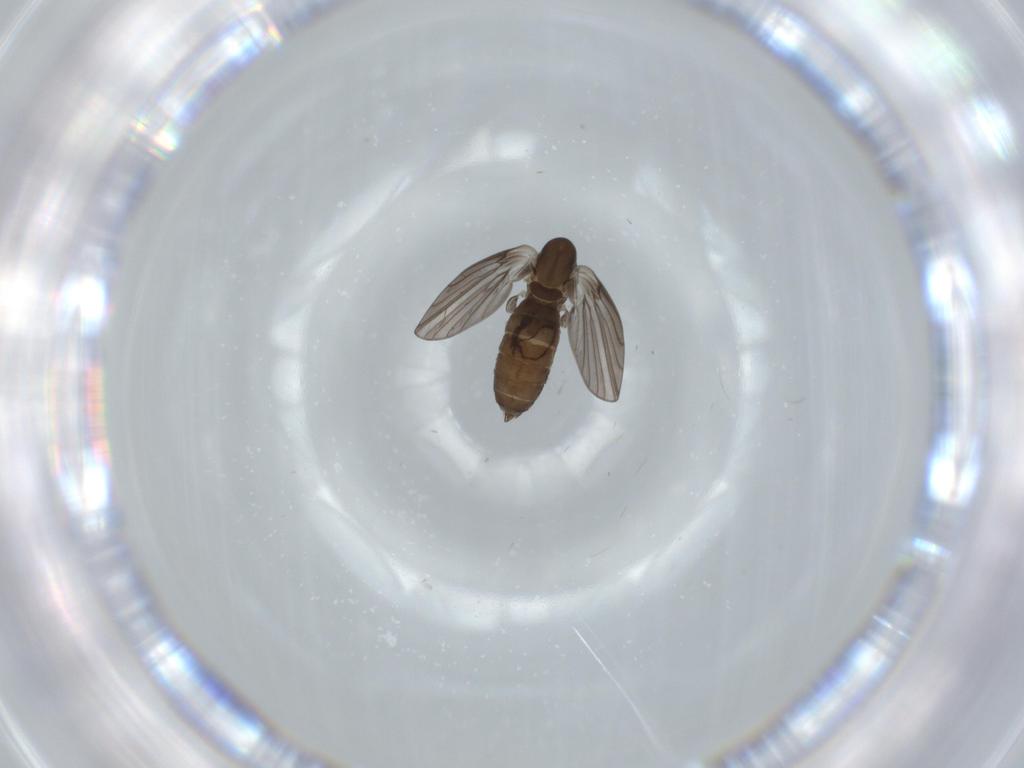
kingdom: Animalia
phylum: Arthropoda
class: Insecta
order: Diptera
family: Psychodidae
